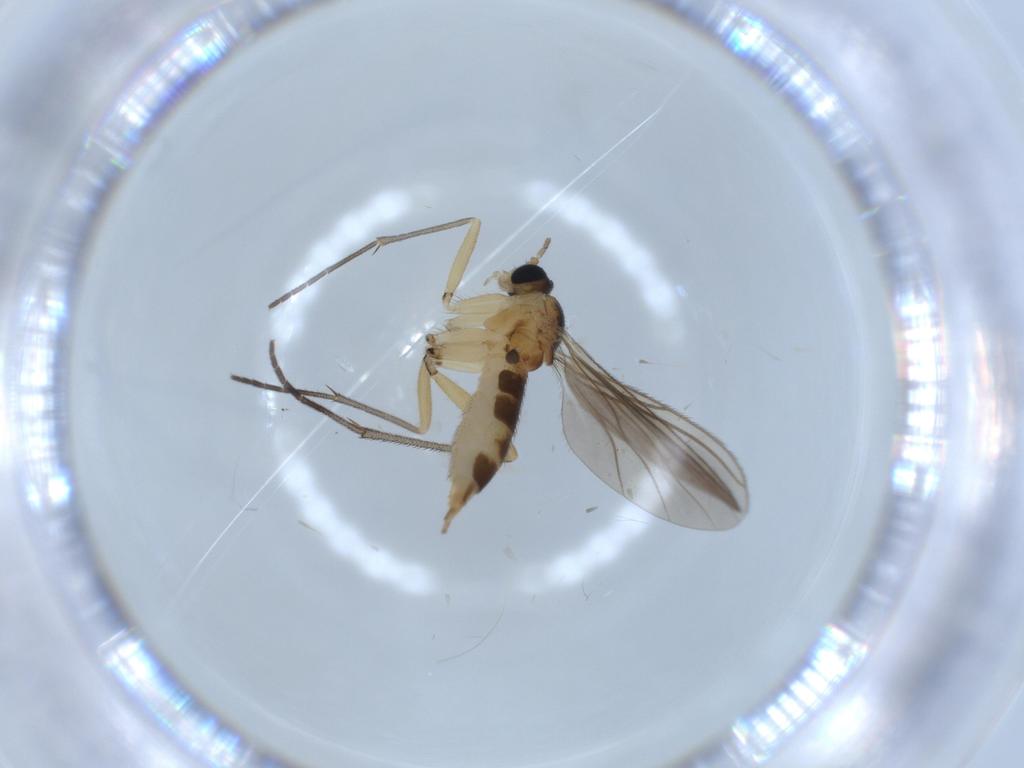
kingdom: Animalia
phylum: Arthropoda
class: Insecta
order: Diptera
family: Sciaridae
